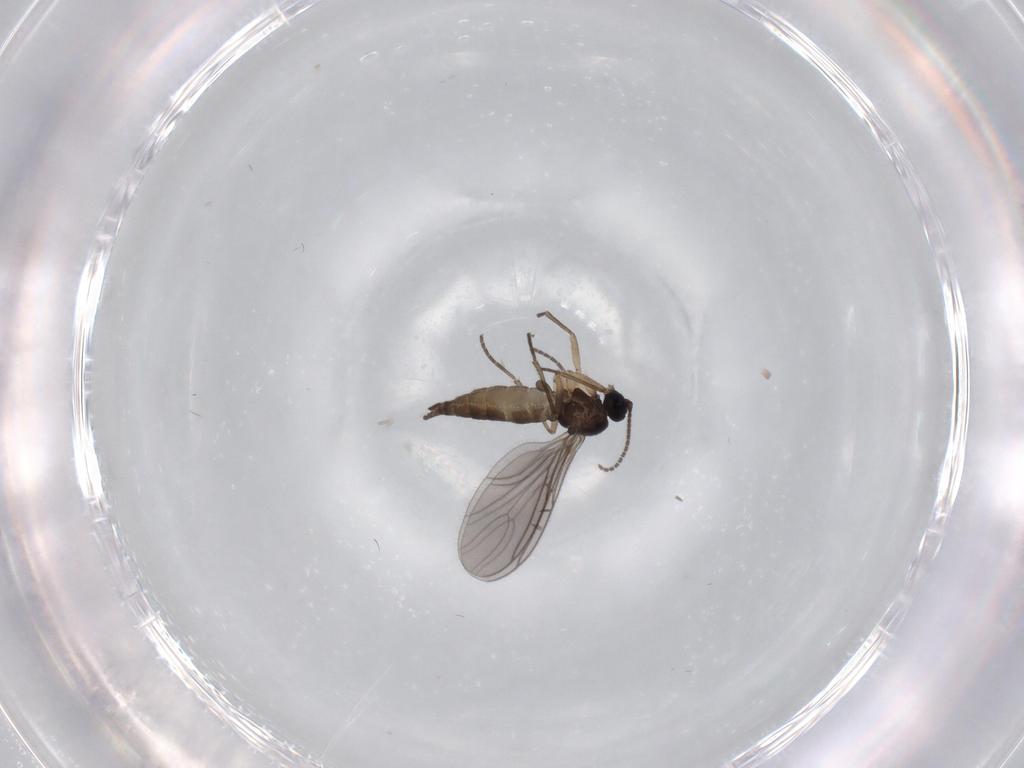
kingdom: Animalia
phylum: Arthropoda
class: Insecta
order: Diptera
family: Sciaridae
